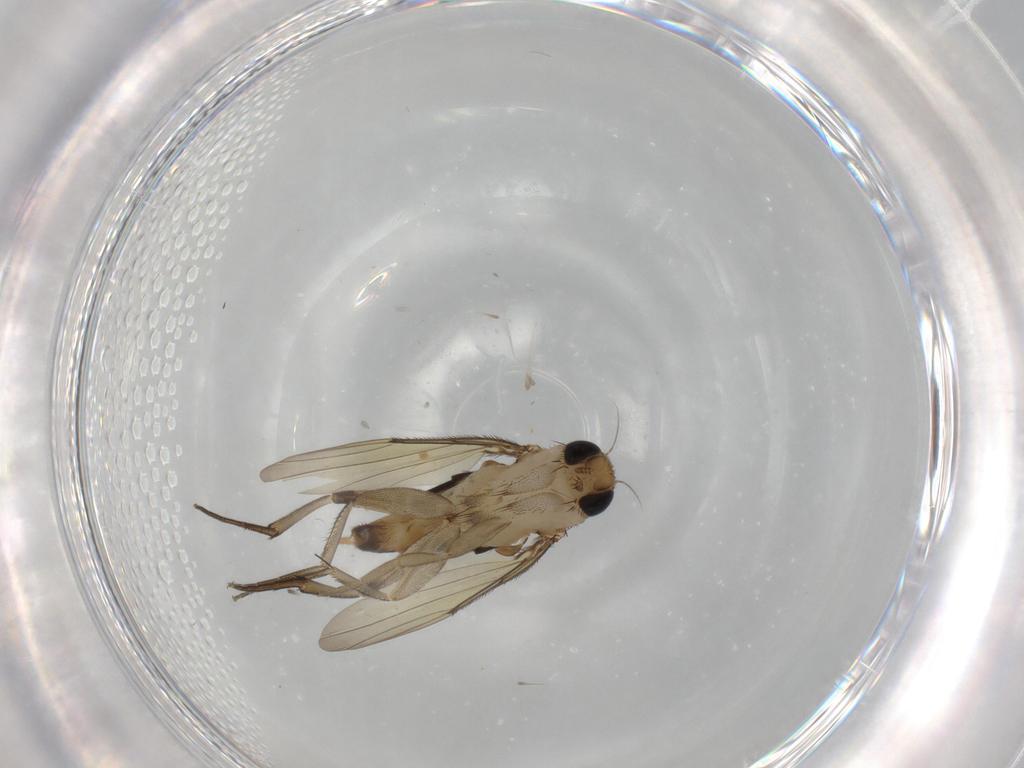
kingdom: Animalia
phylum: Arthropoda
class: Insecta
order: Diptera
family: Phoridae
